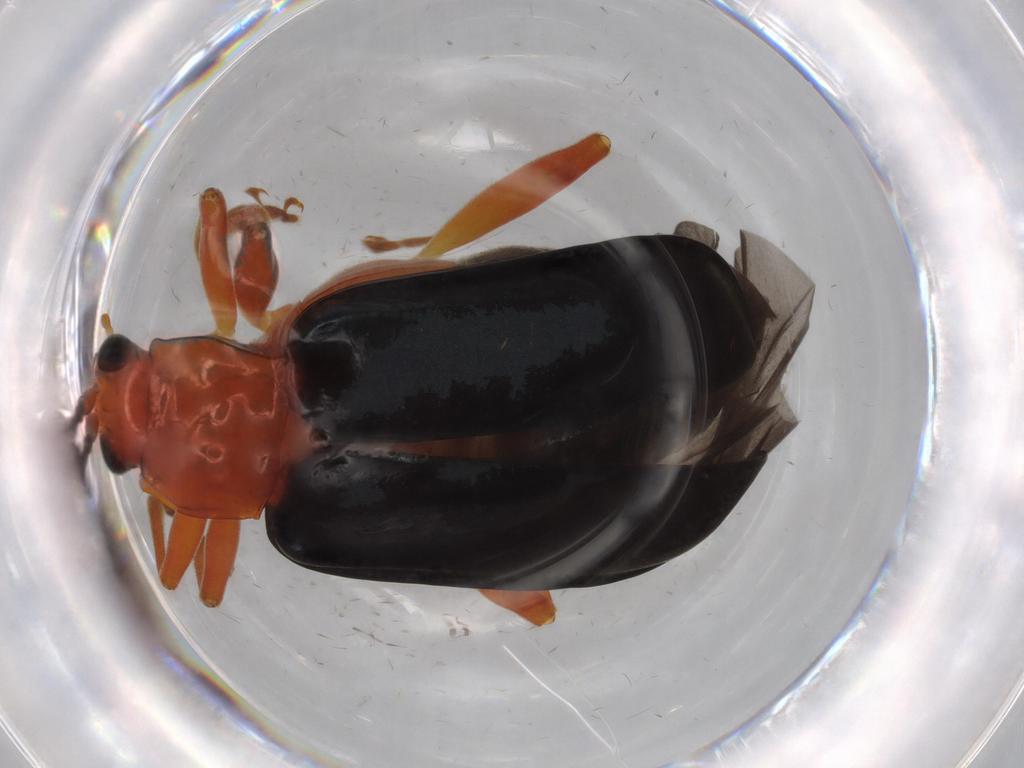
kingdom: Animalia
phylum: Arthropoda
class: Insecta
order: Coleoptera
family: Chrysomelidae
